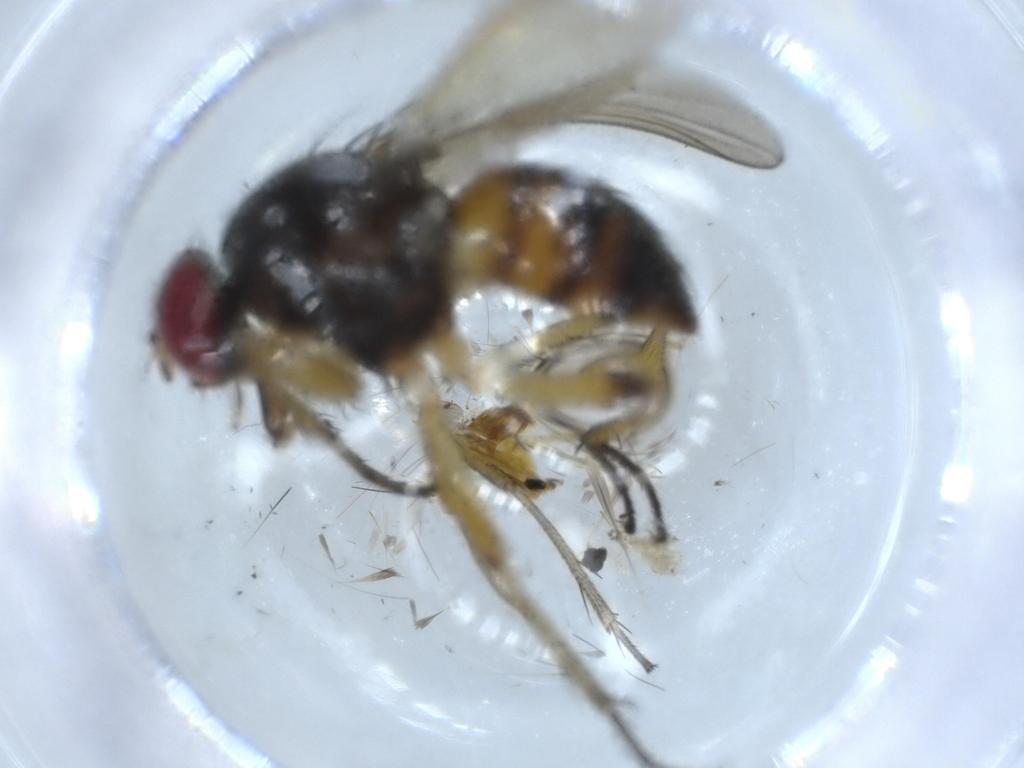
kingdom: Animalia
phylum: Arthropoda
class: Insecta
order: Diptera
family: Chironomidae
